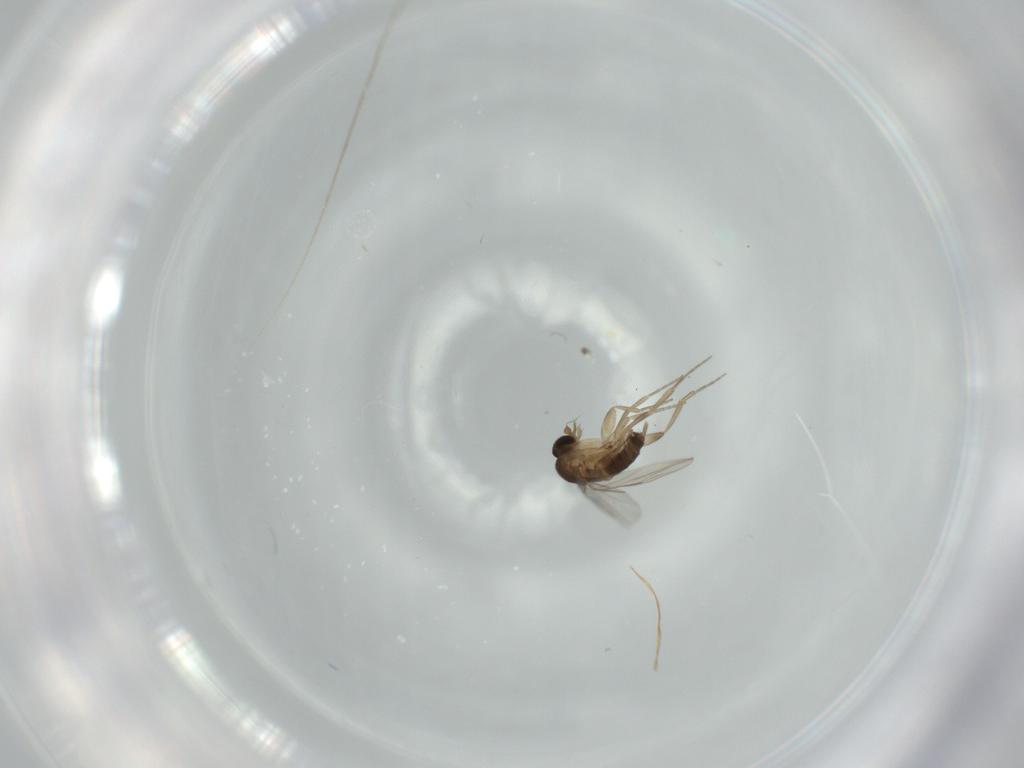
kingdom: Animalia
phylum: Arthropoda
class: Insecta
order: Diptera
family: Phoridae
